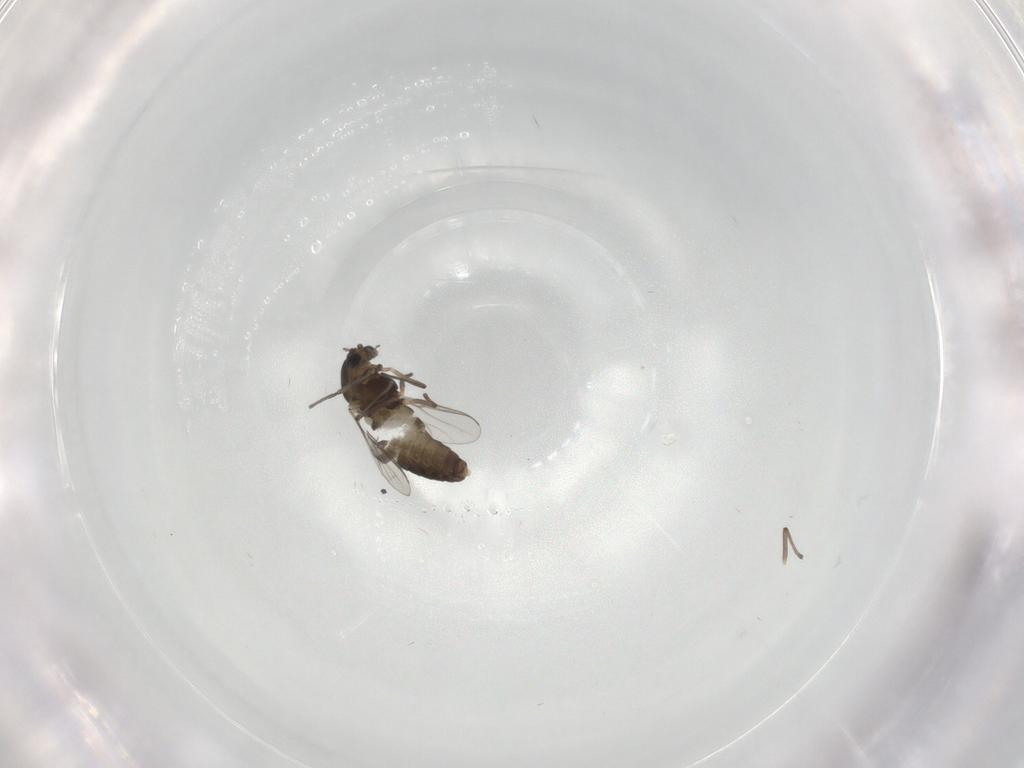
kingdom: Animalia
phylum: Arthropoda
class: Insecta
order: Diptera
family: Chironomidae
